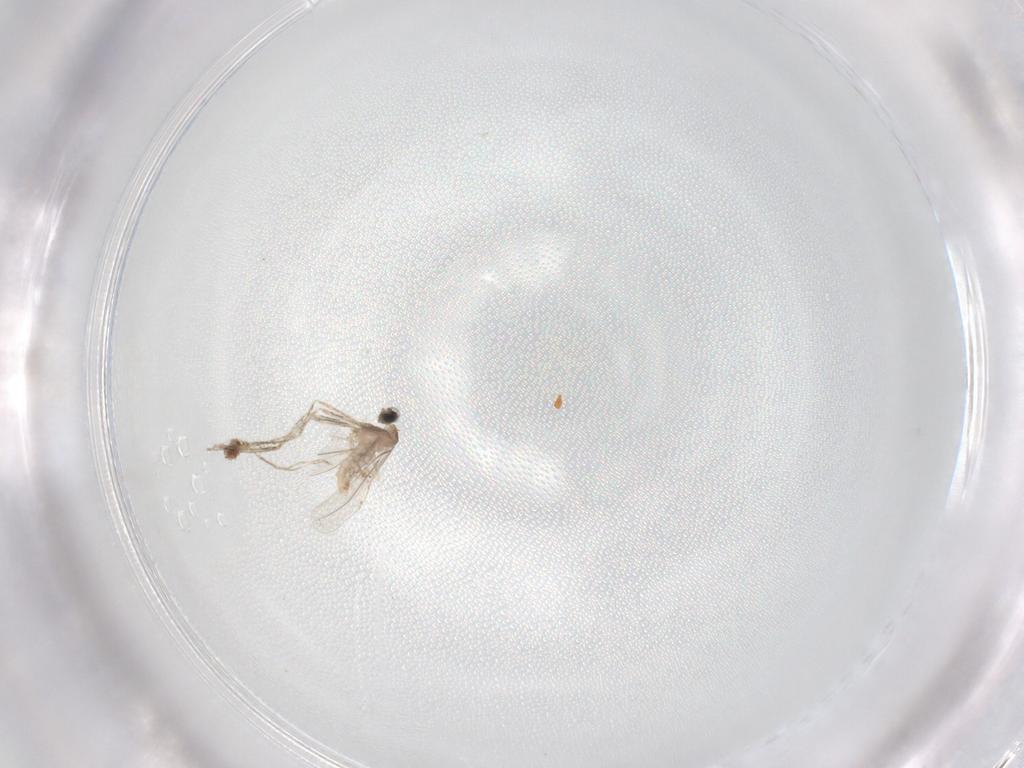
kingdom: Animalia
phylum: Arthropoda
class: Insecta
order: Diptera
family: Cecidomyiidae
